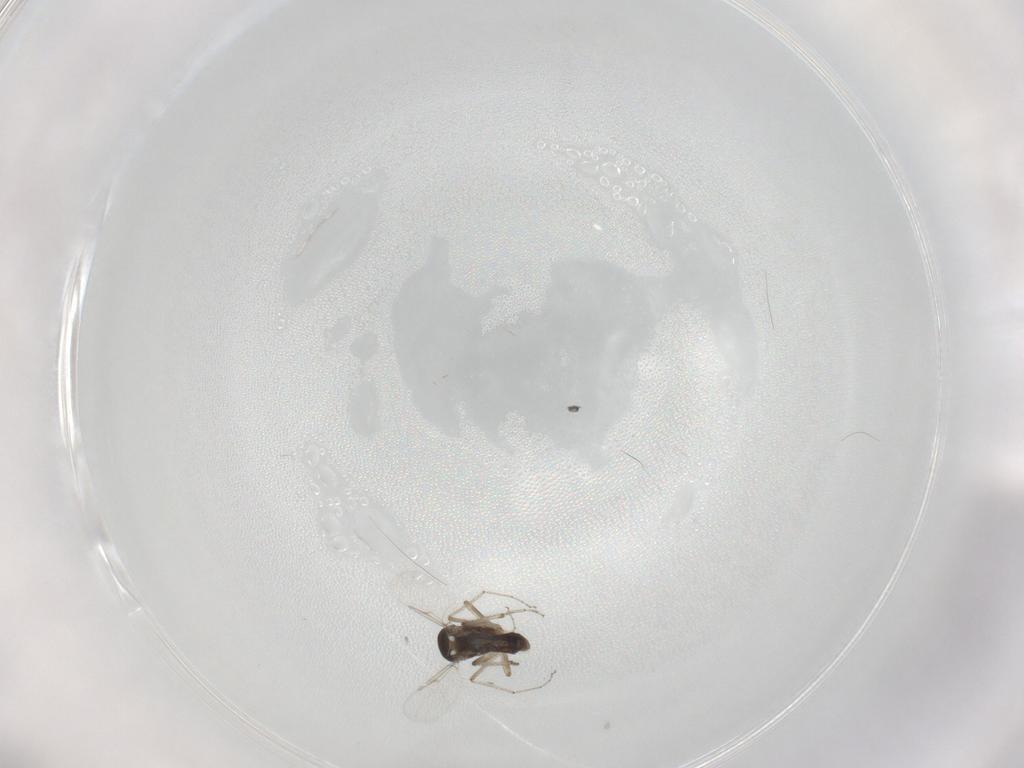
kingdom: Animalia
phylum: Arthropoda
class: Insecta
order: Diptera
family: Ceratopogonidae
